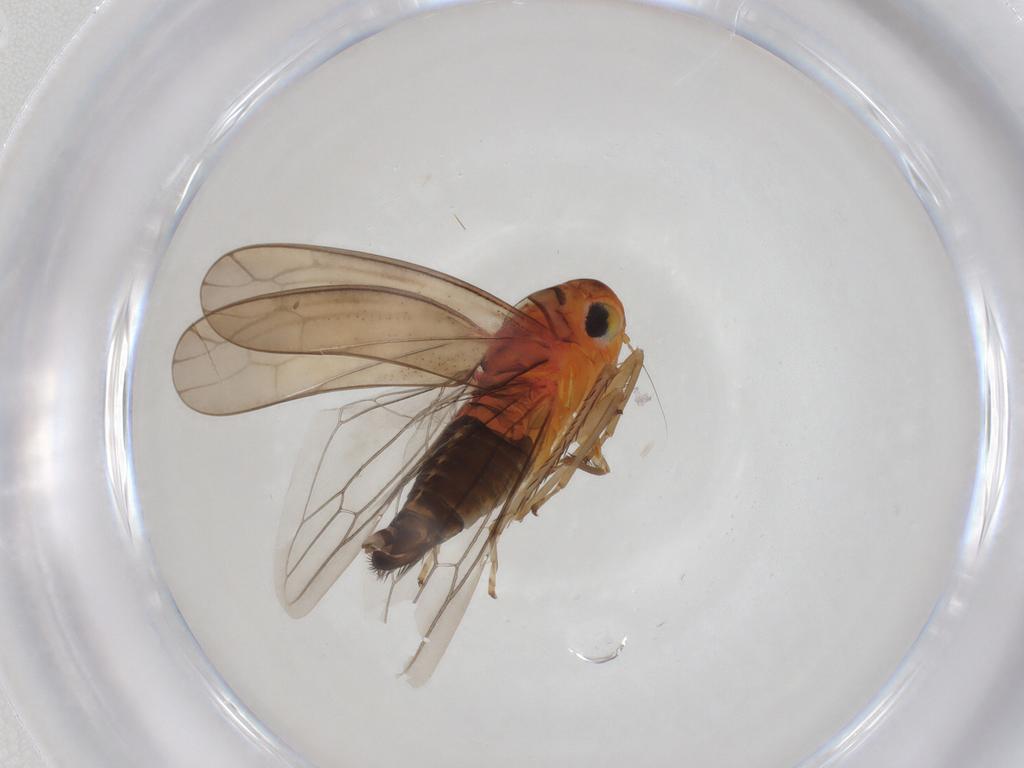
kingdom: Animalia
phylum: Arthropoda
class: Insecta
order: Hemiptera
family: Cicadellidae
